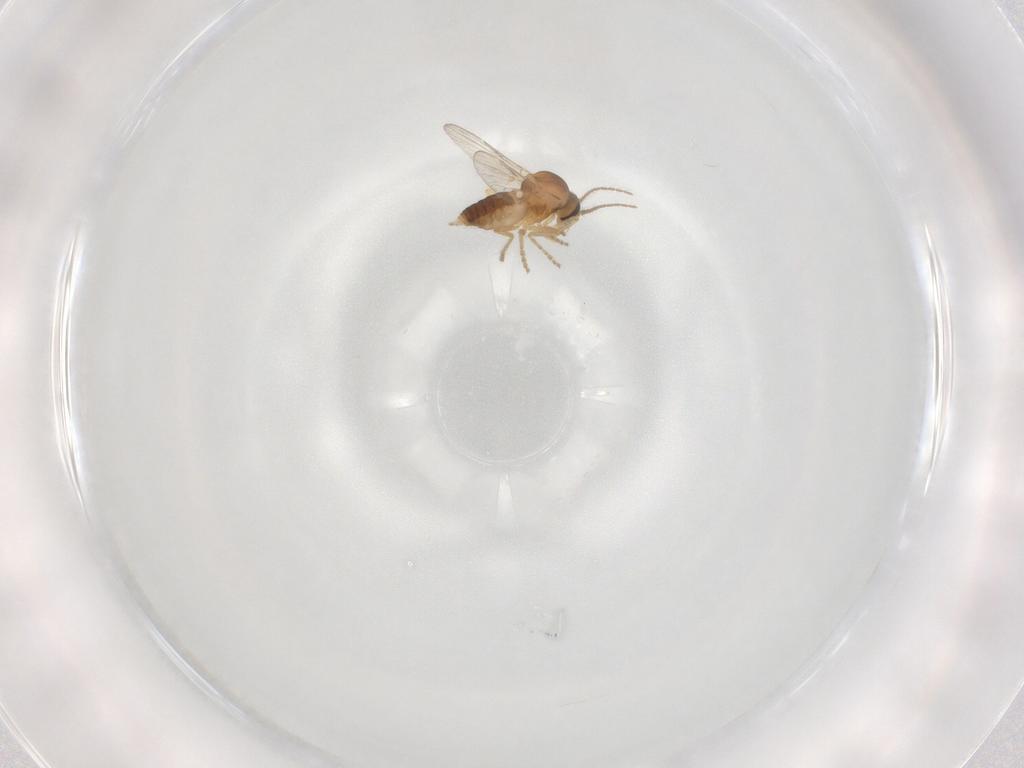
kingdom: Animalia
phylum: Arthropoda
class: Insecta
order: Diptera
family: Ceratopogonidae
